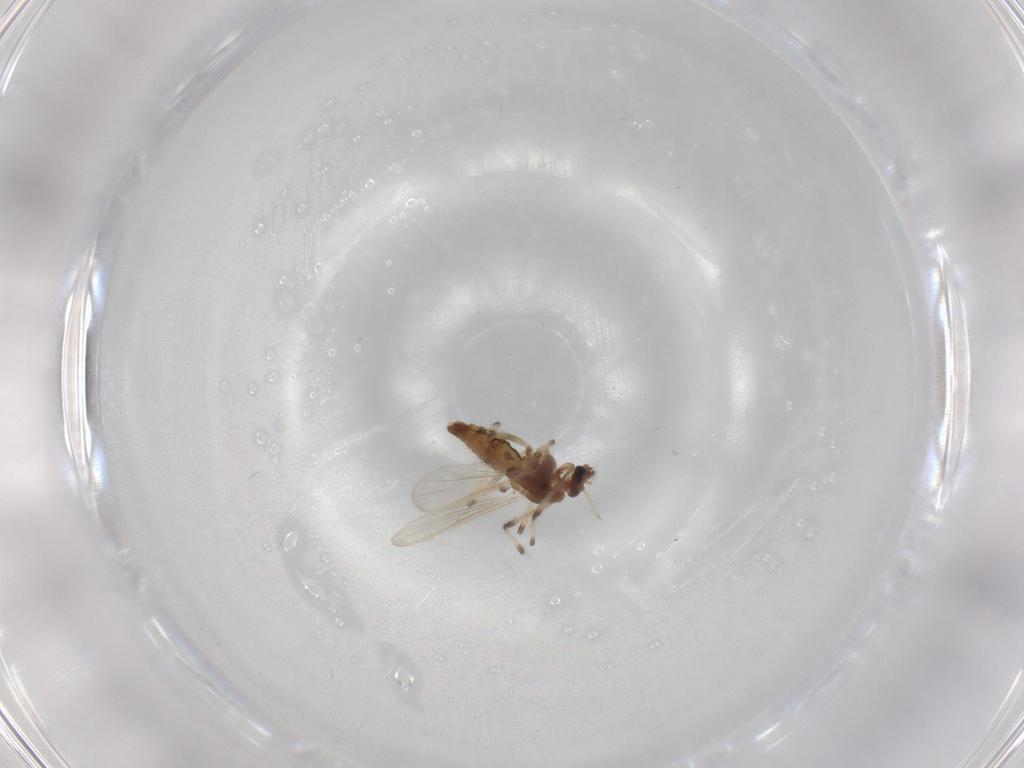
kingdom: Animalia
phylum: Arthropoda
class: Insecta
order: Diptera
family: Chironomidae
